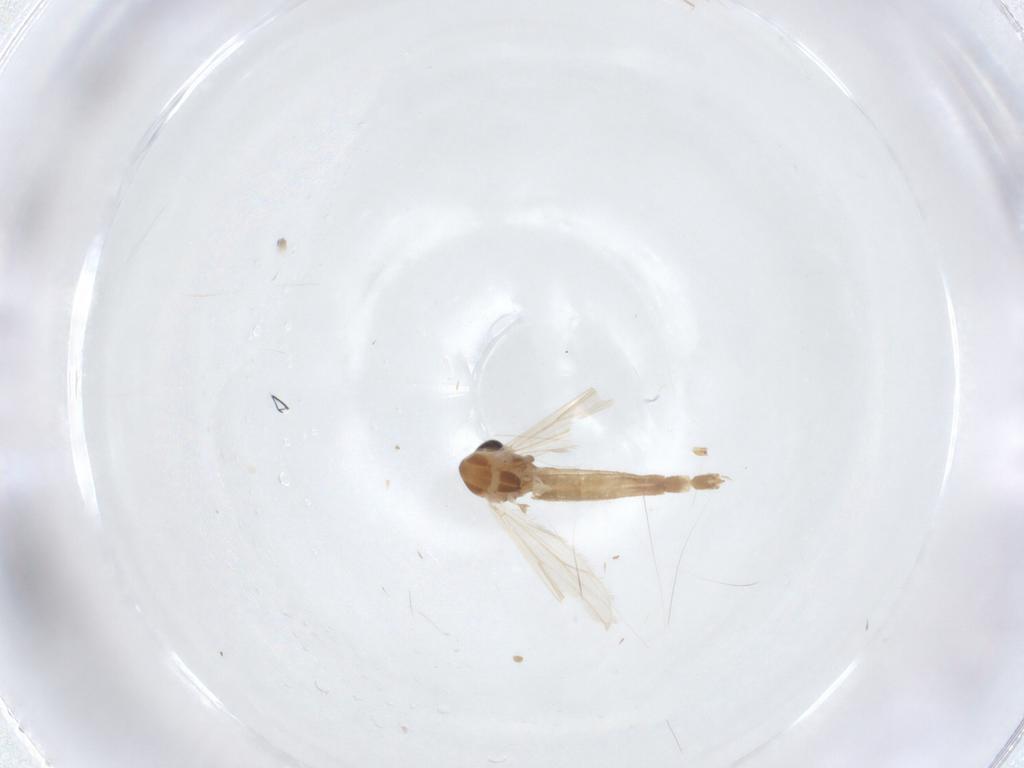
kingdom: Animalia
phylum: Arthropoda
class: Insecta
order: Diptera
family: Chironomidae
